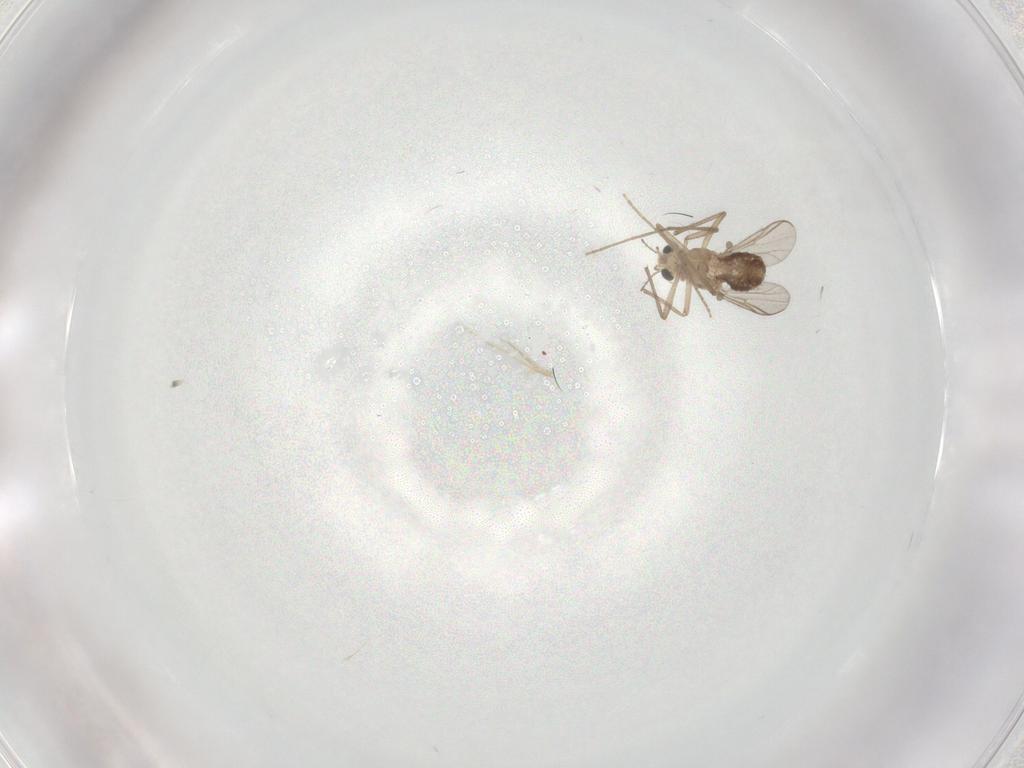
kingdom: Animalia
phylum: Arthropoda
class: Insecta
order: Diptera
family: Chironomidae
